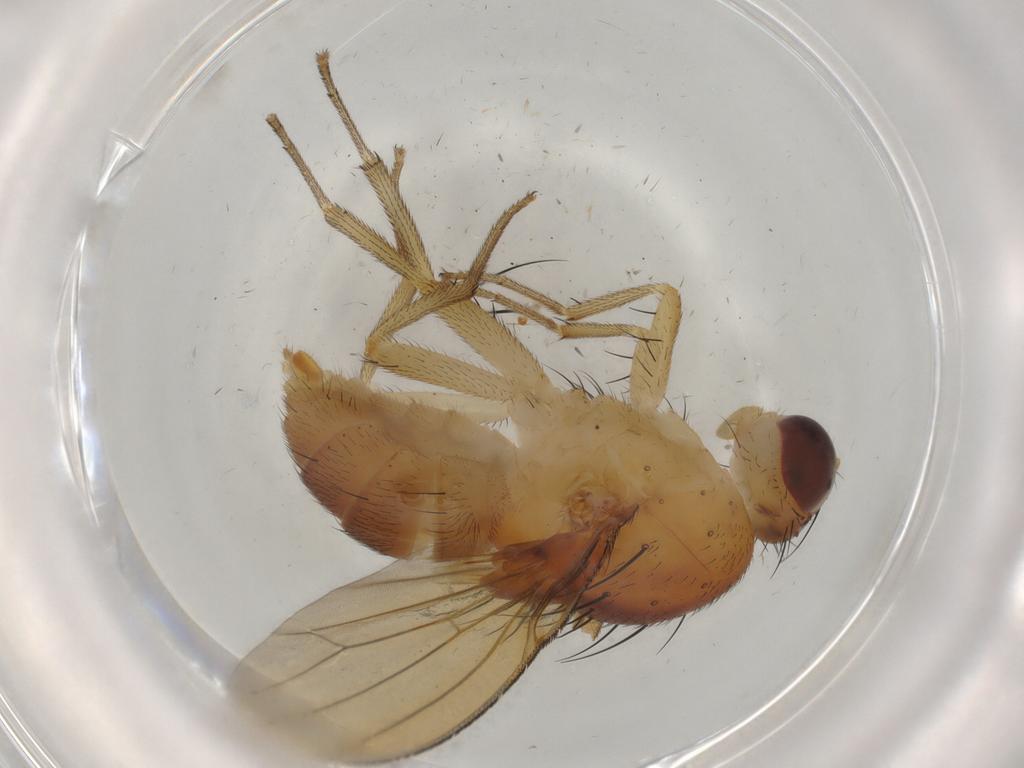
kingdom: Animalia
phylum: Arthropoda
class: Insecta
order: Diptera
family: Lauxaniidae
